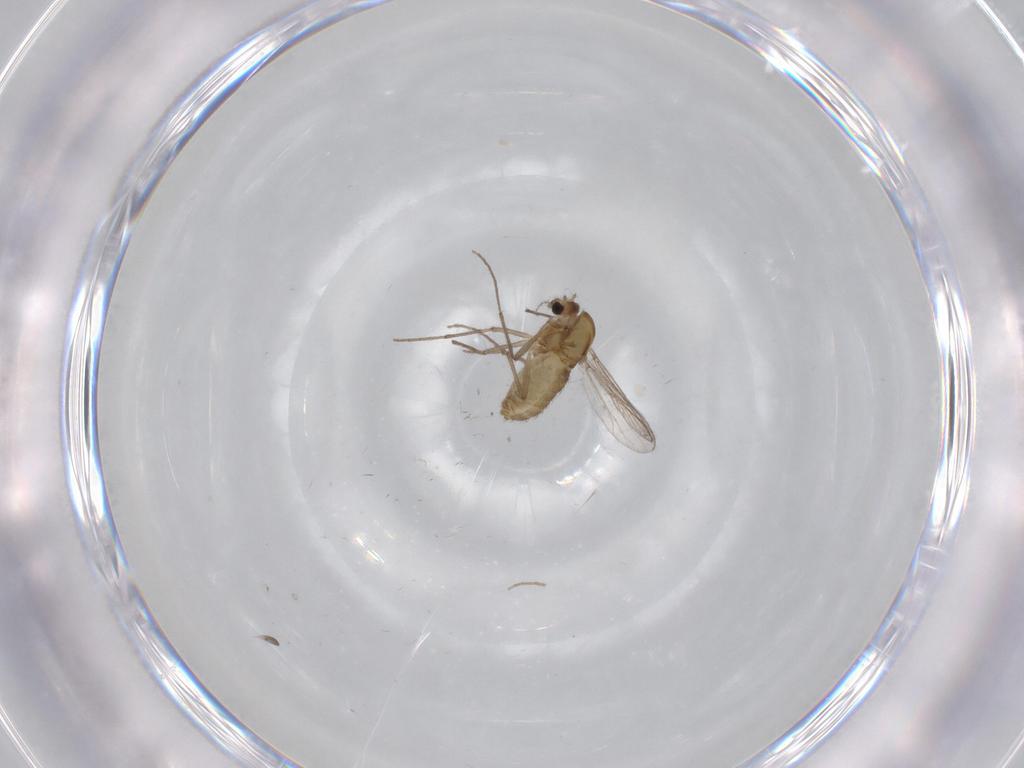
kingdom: Animalia
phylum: Arthropoda
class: Insecta
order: Diptera
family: Chironomidae
